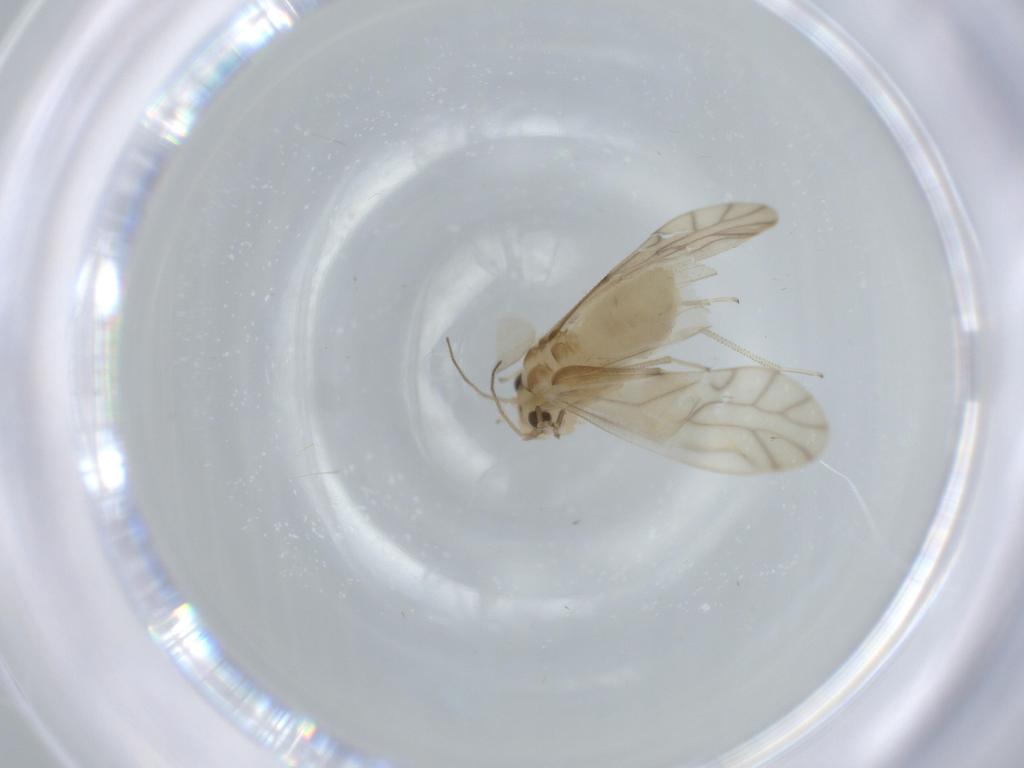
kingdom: Animalia
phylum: Arthropoda
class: Insecta
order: Psocodea
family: Caeciliusidae
